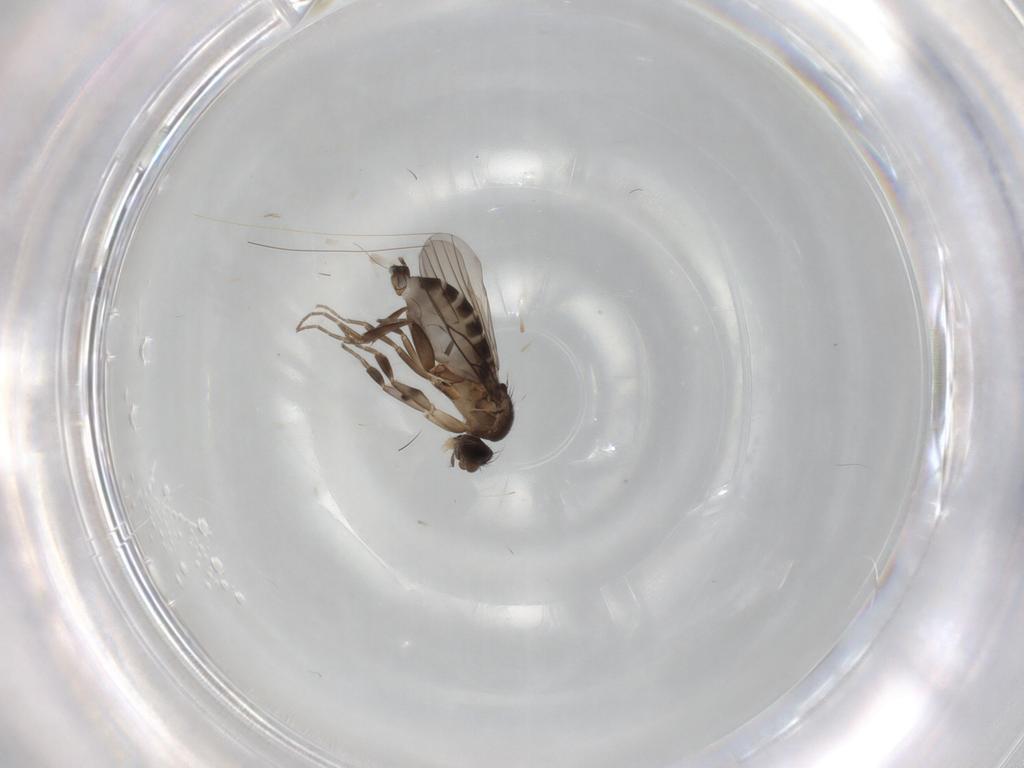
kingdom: Animalia
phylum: Arthropoda
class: Insecta
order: Diptera
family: Phoridae
